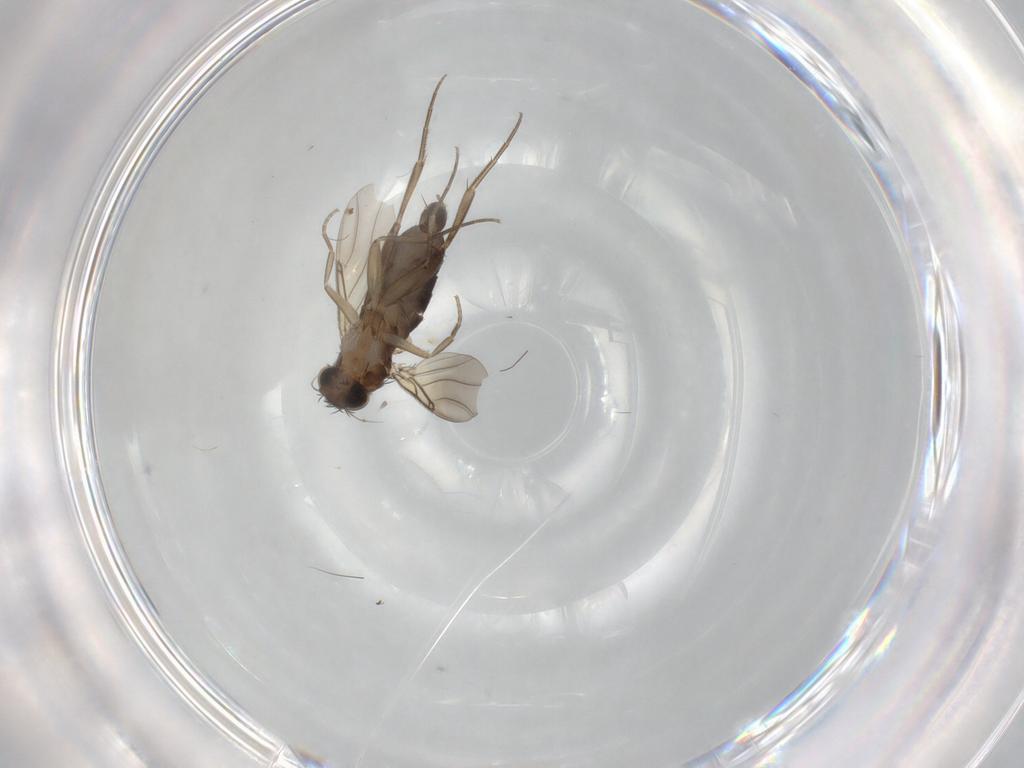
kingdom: Animalia
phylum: Arthropoda
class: Insecta
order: Diptera
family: Phoridae
